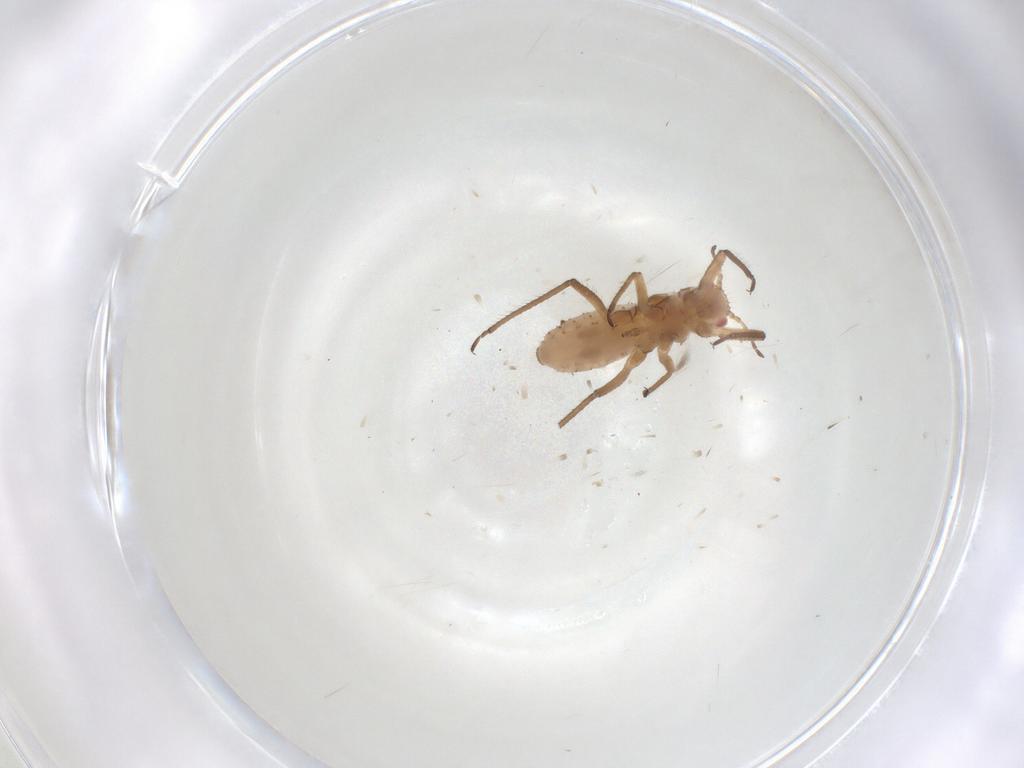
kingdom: Animalia
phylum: Arthropoda
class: Insecta
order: Hemiptera
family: Aphididae
